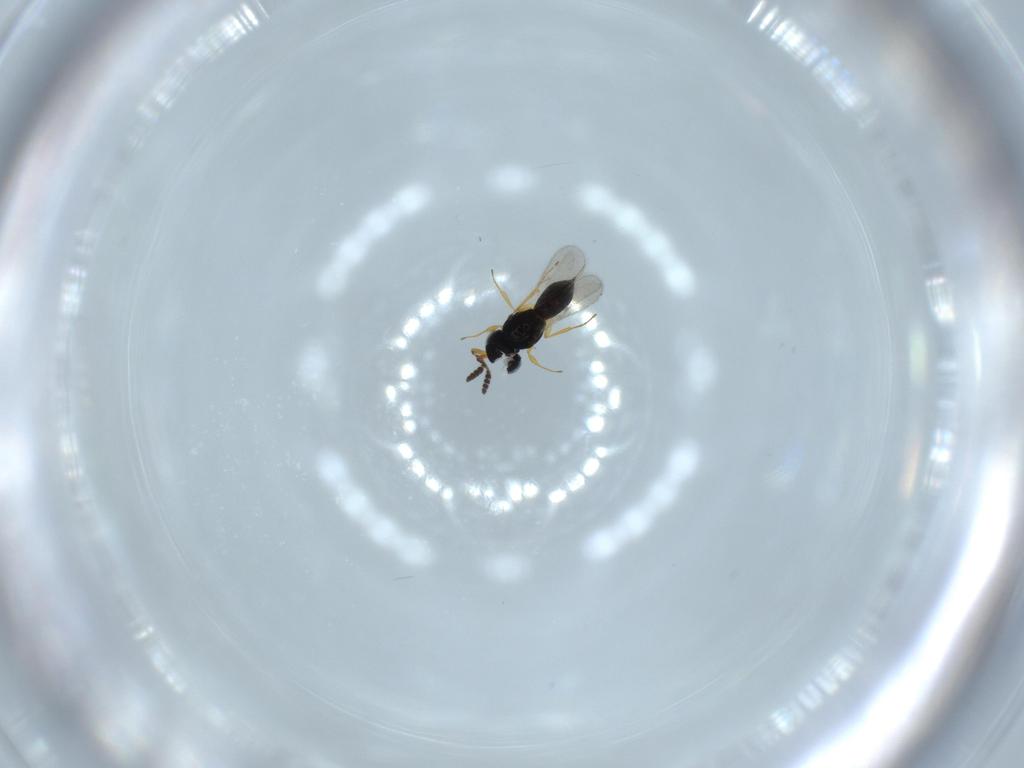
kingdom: Animalia
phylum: Arthropoda
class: Insecta
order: Hymenoptera
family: Scelionidae
